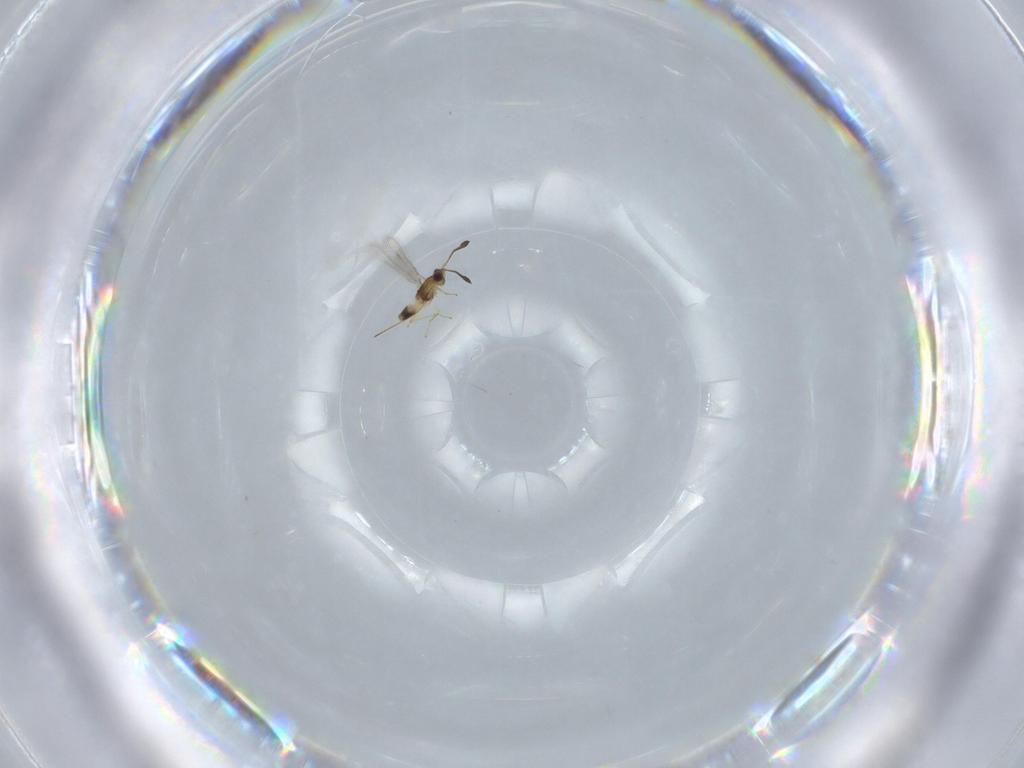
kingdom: Animalia
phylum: Arthropoda
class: Insecta
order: Hymenoptera
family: Mymaridae
